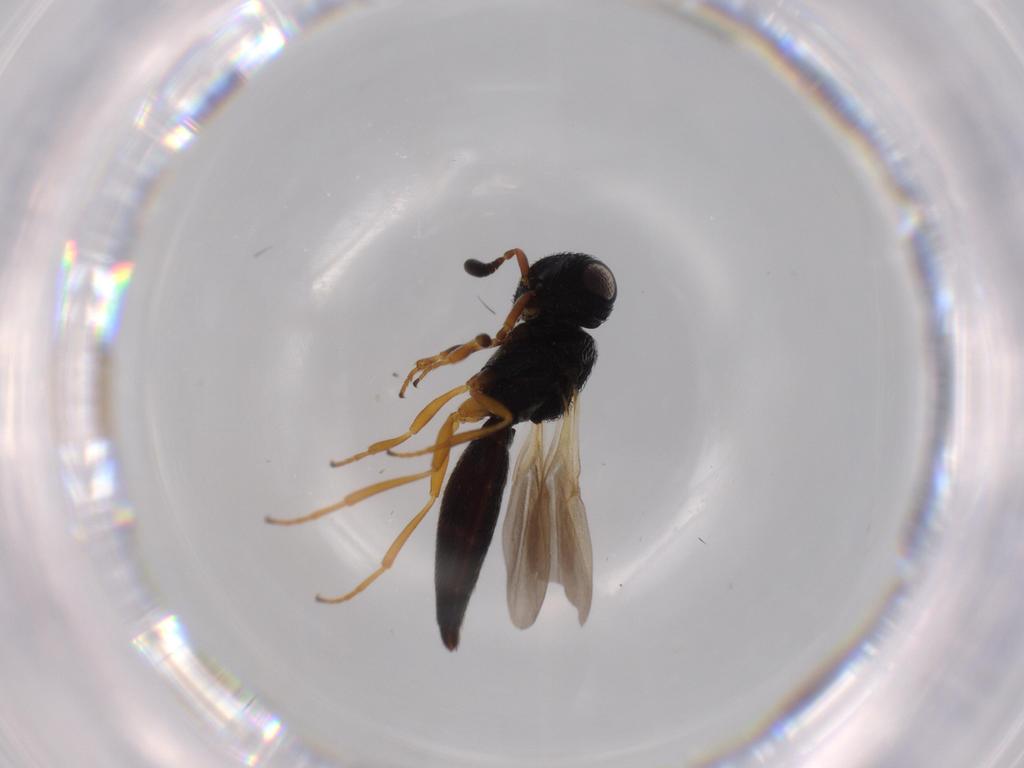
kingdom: Animalia
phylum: Arthropoda
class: Insecta
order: Hymenoptera
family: Scelionidae
